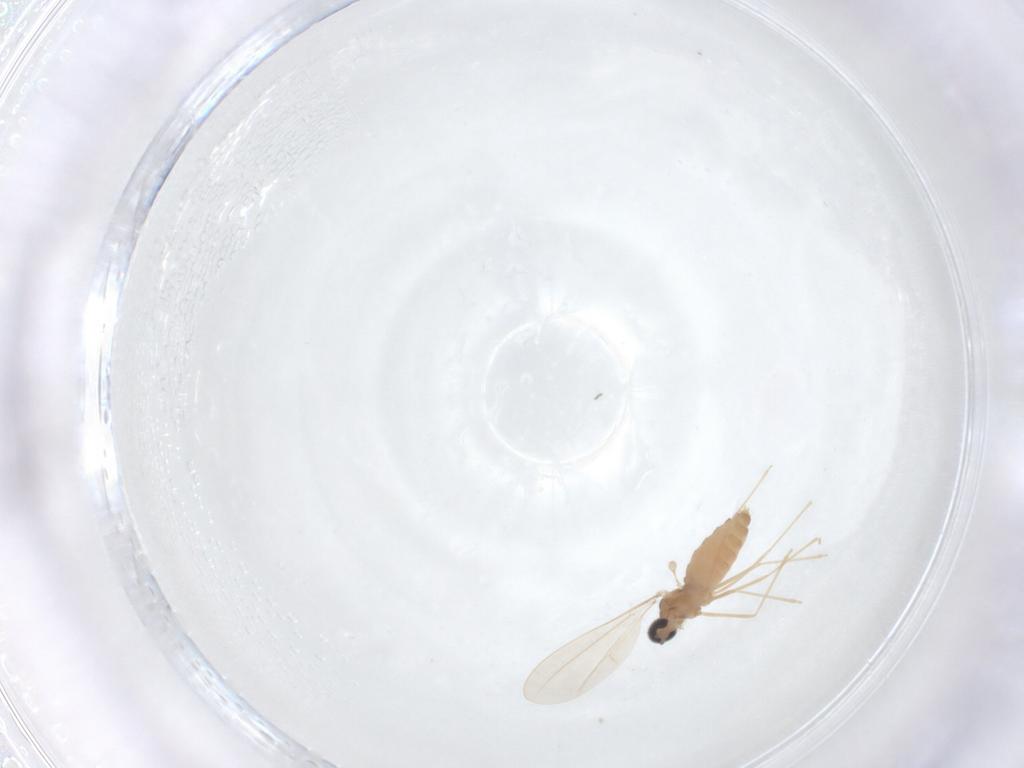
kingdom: Animalia
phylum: Arthropoda
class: Insecta
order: Diptera
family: Cecidomyiidae
